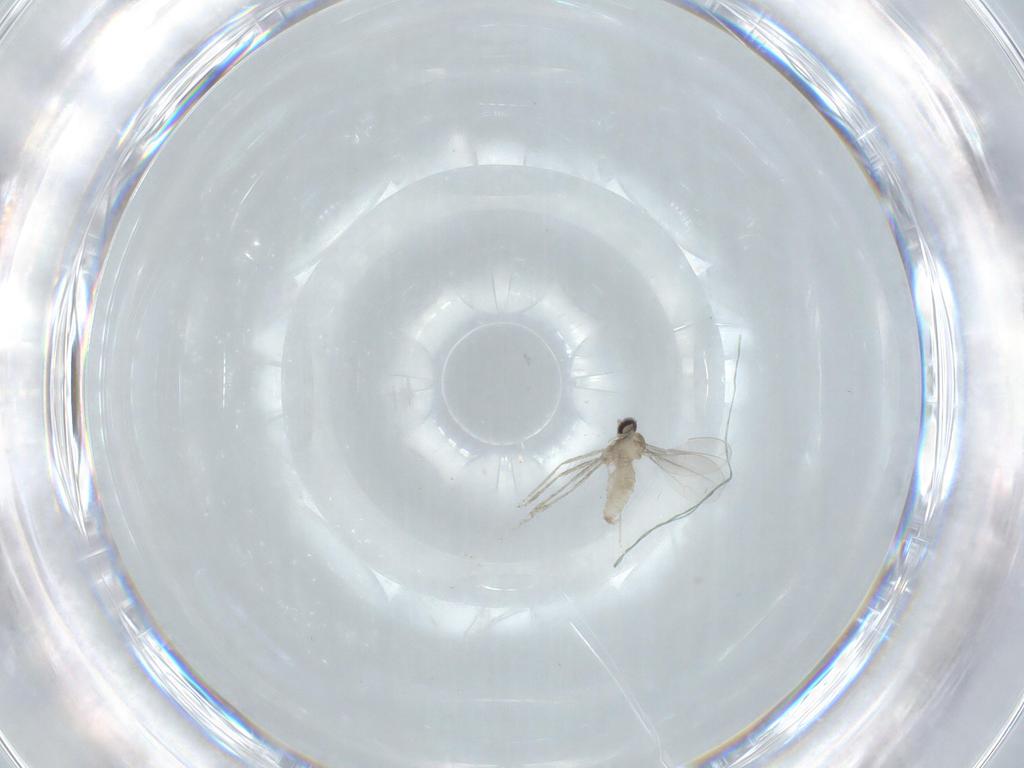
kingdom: Animalia
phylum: Arthropoda
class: Insecta
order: Diptera
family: Cecidomyiidae
